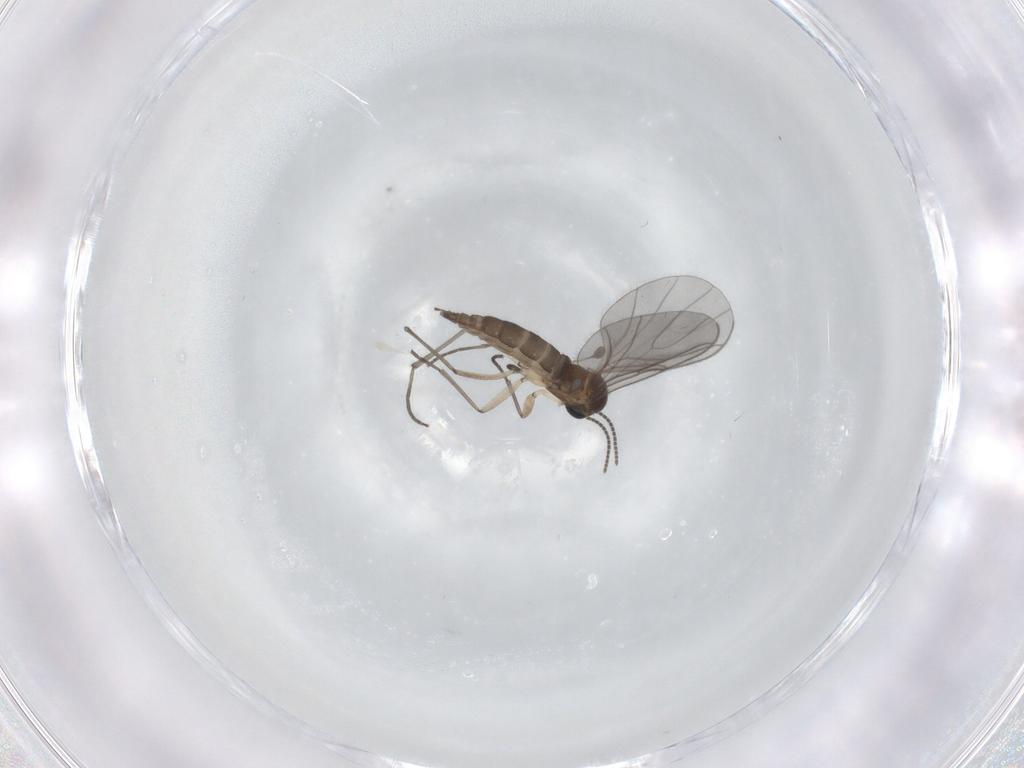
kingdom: Animalia
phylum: Arthropoda
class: Insecta
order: Diptera
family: Sciaridae
